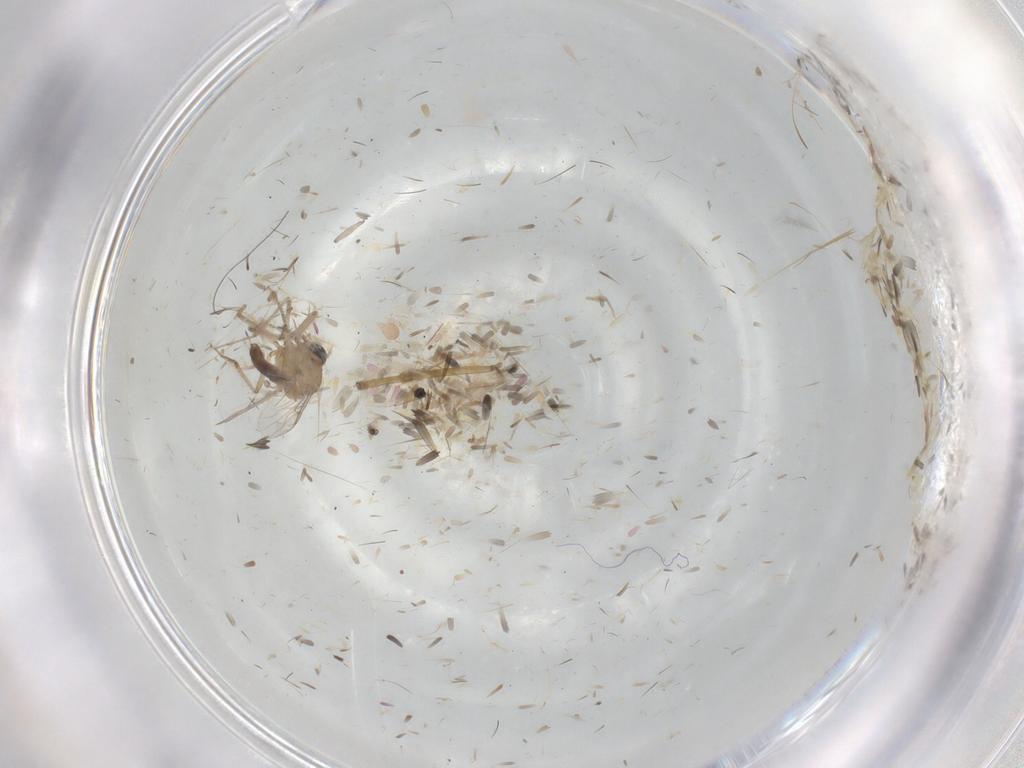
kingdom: Animalia
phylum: Arthropoda
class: Insecta
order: Diptera
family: Ceratopogonidae
